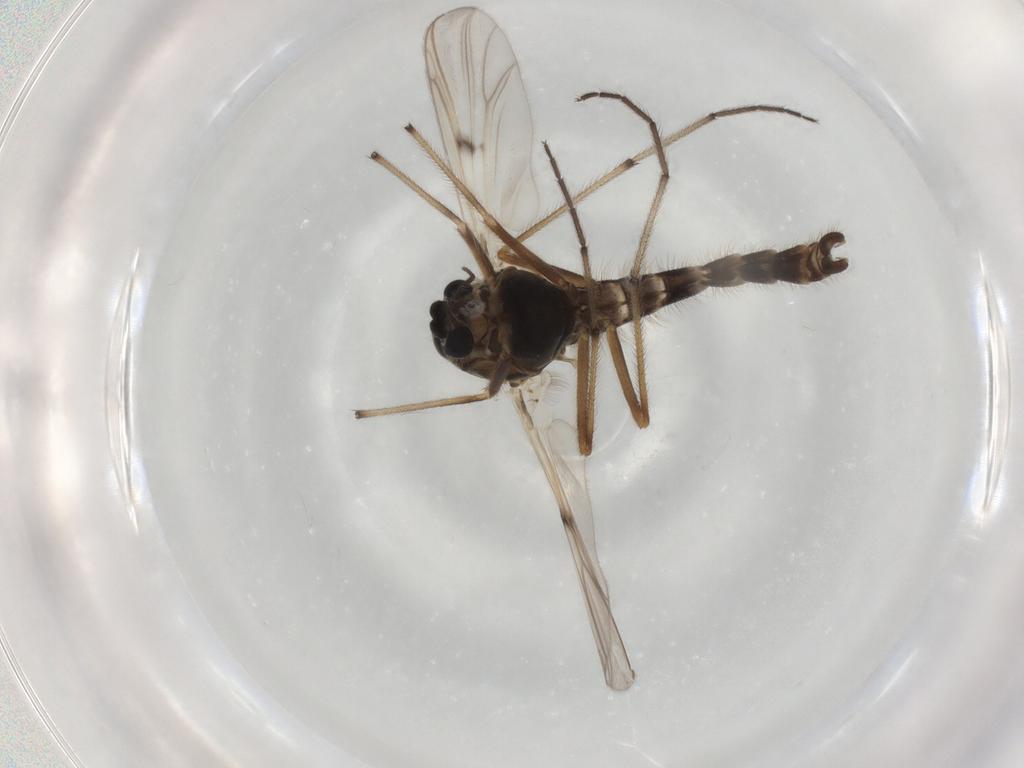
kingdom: Animalia
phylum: Arthropoda
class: Insecta
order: Diptera
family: Chironomidae
